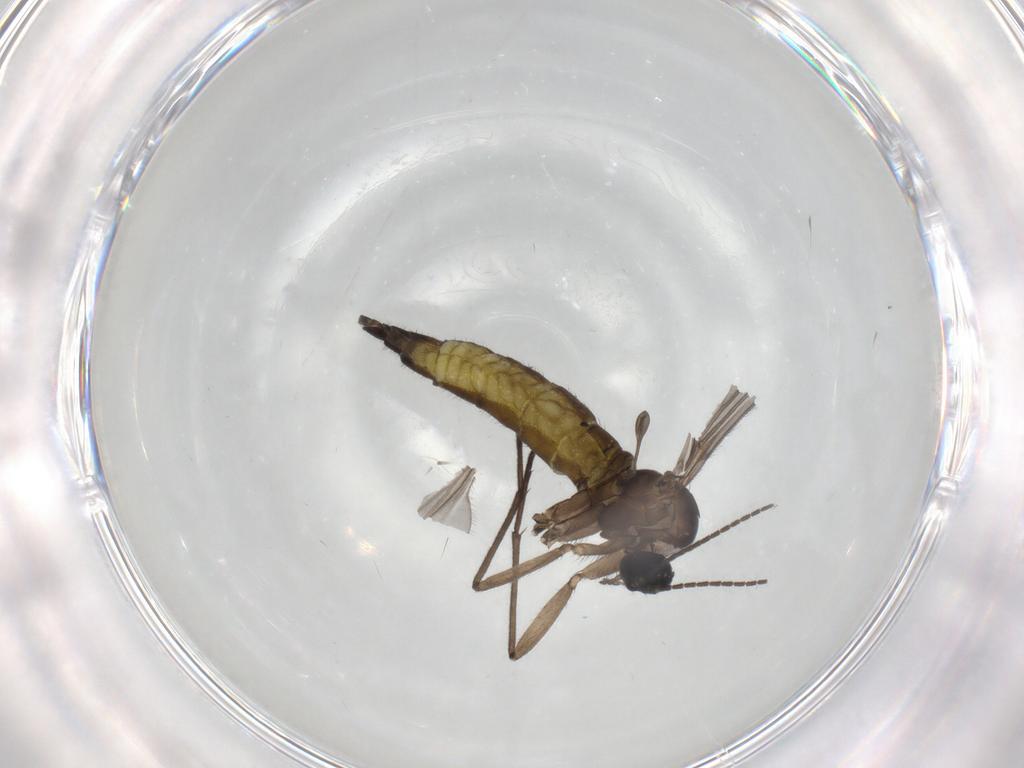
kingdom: Animalia
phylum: Arthropoda
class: Insecta
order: Diptera
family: Sciaridae
